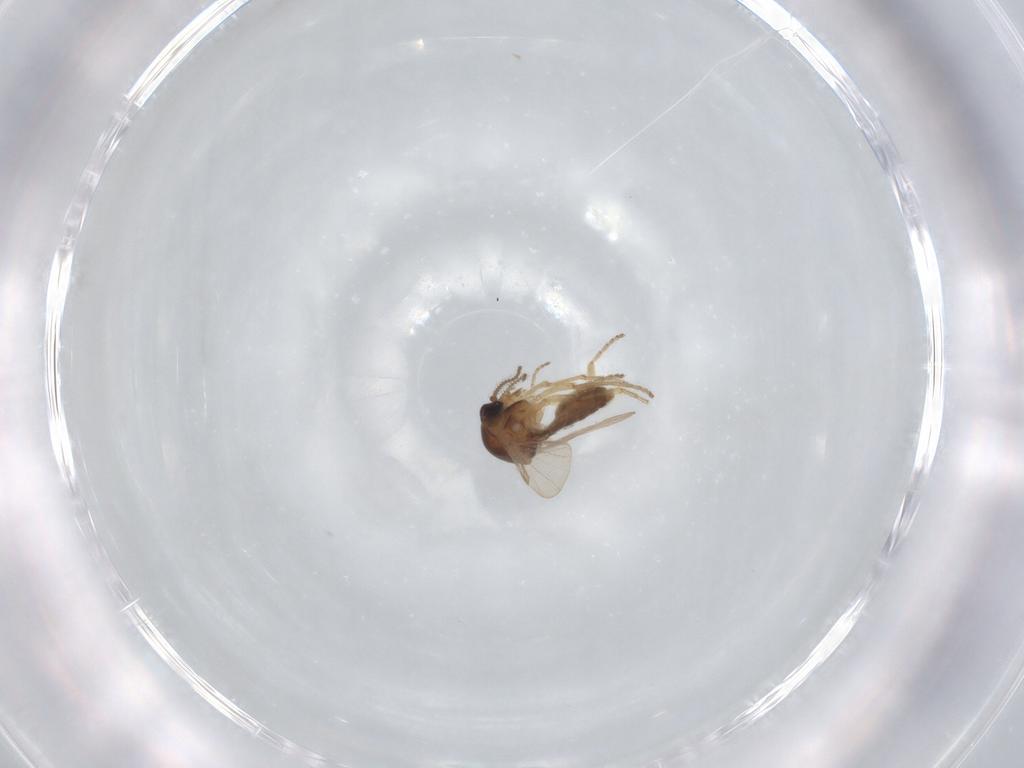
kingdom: Animalia
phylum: Arthropoda
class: Insecta
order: Diptera
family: Ceratopogonidae
